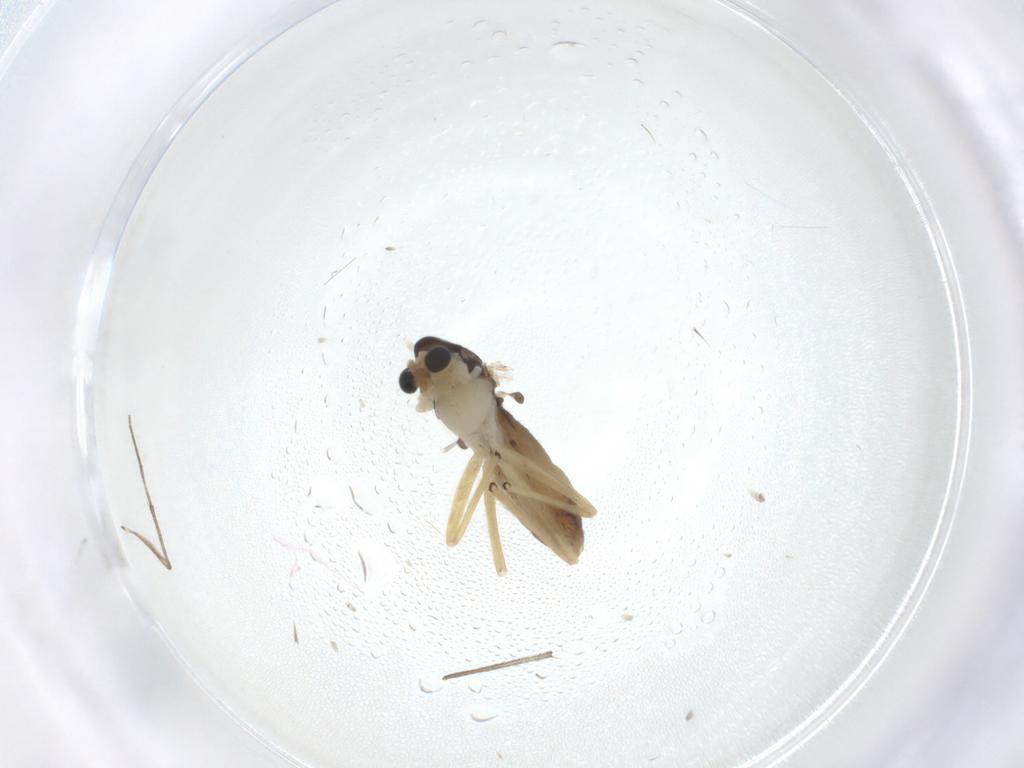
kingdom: Animalia
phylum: Arthropoda
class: Insecta
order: Diptera
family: Chironomidae
